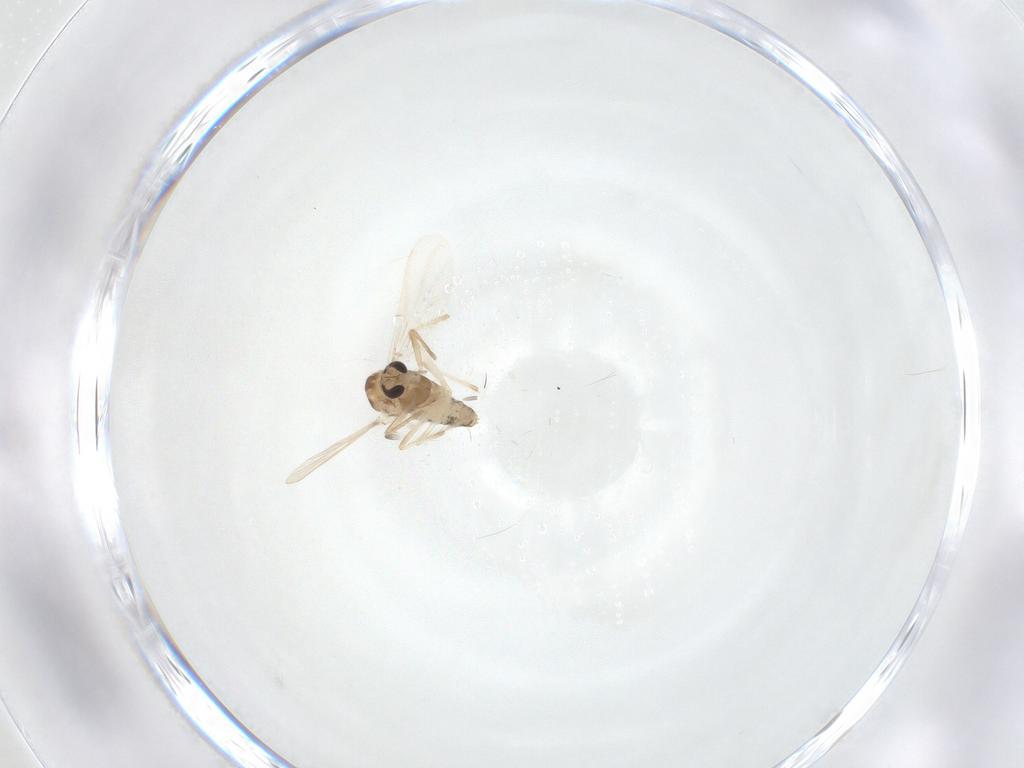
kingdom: Animalia
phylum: Arthropoda
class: Insecta
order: Diptera
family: Chironomidae
